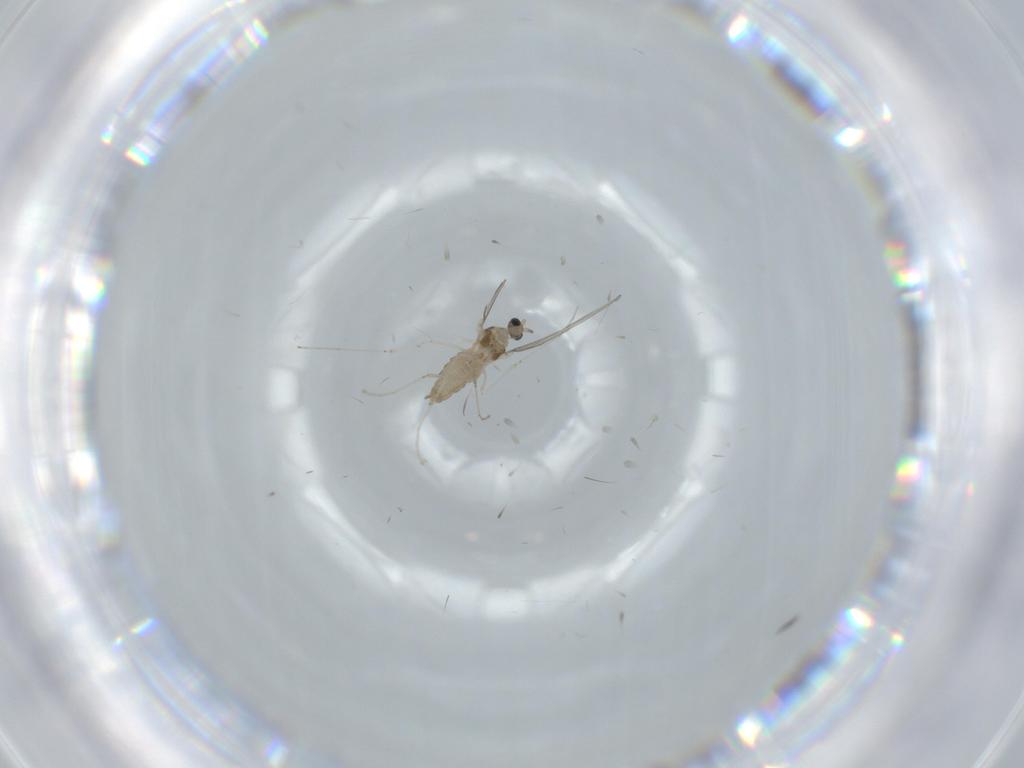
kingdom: Animalia
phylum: Arthropoda
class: Insecta
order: Diptera
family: Cecidomyiidae
